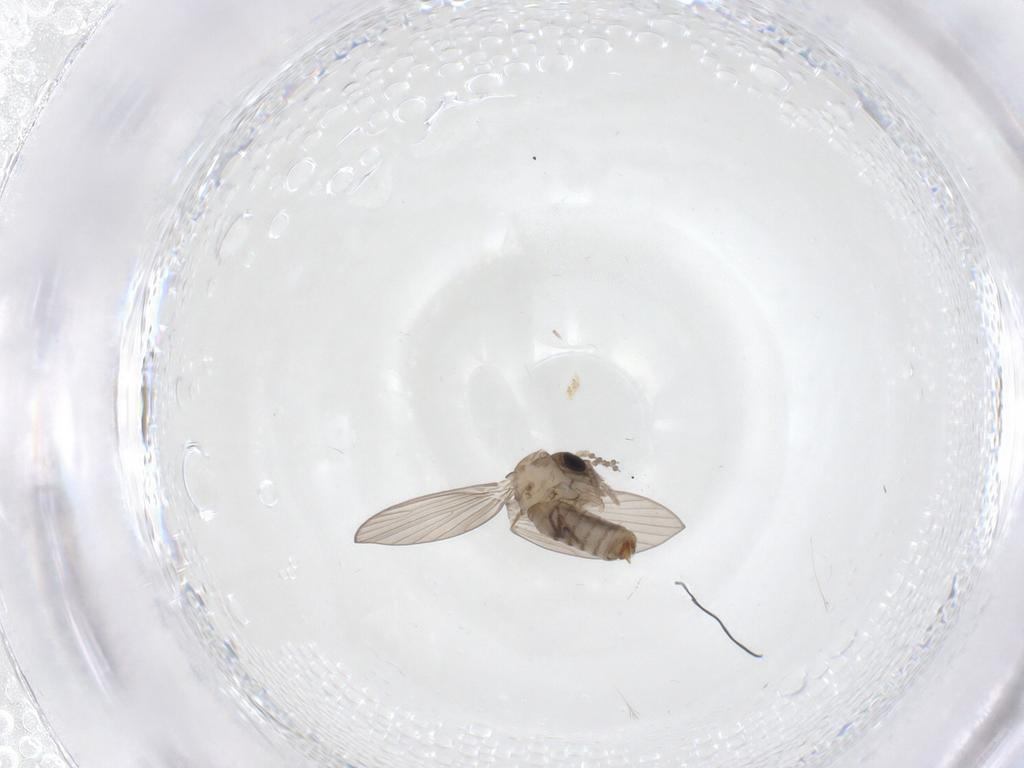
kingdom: Animalia
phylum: Arthropoda
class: Insecta
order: Diptera
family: Psychodidae
